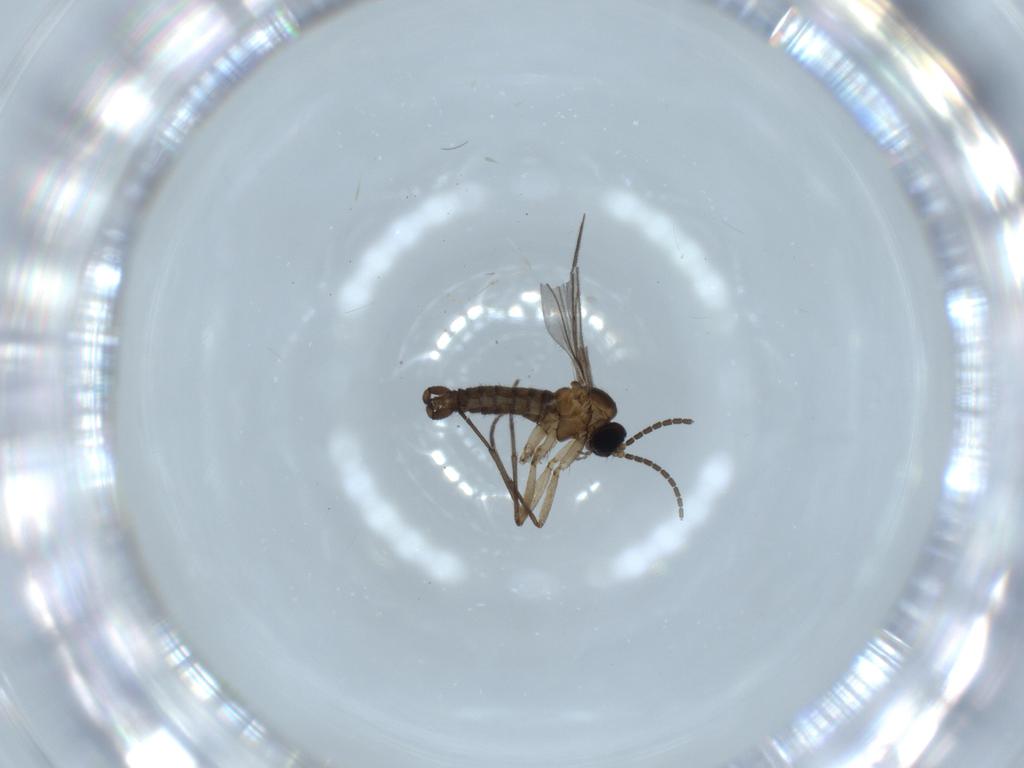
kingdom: Animalia
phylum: Arthropoda
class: Insecta
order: Diptera
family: Sciaridae
